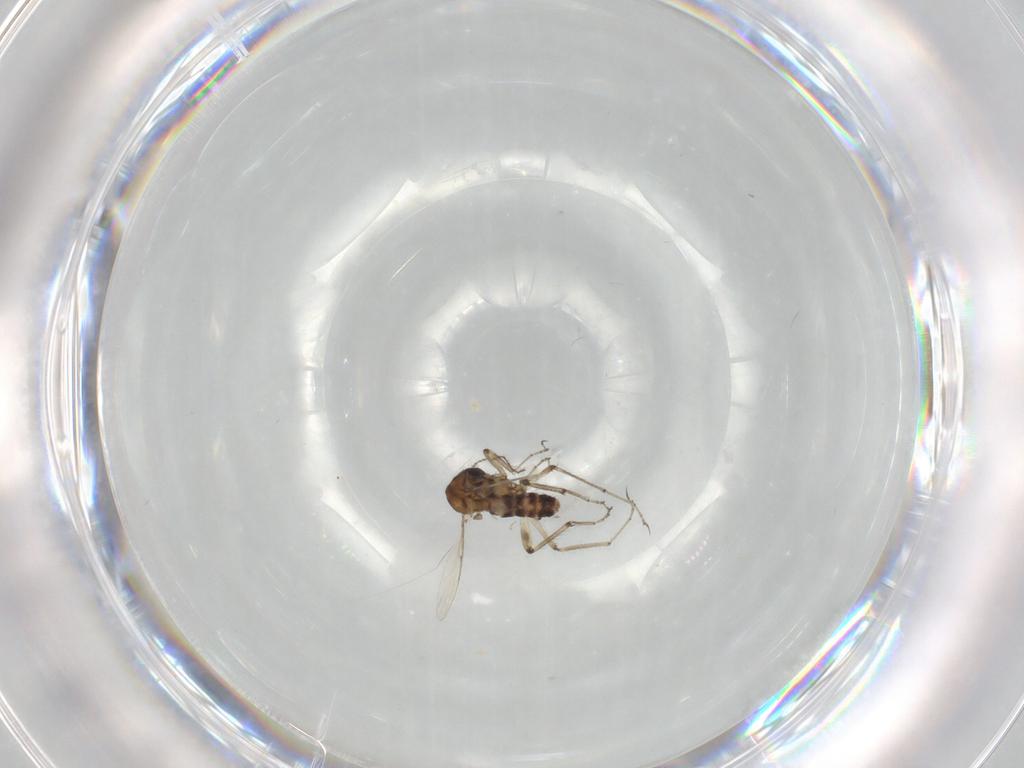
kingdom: Animalia
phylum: Arthropoda
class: Insecta
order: Diptera
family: Ceratopogonidae
